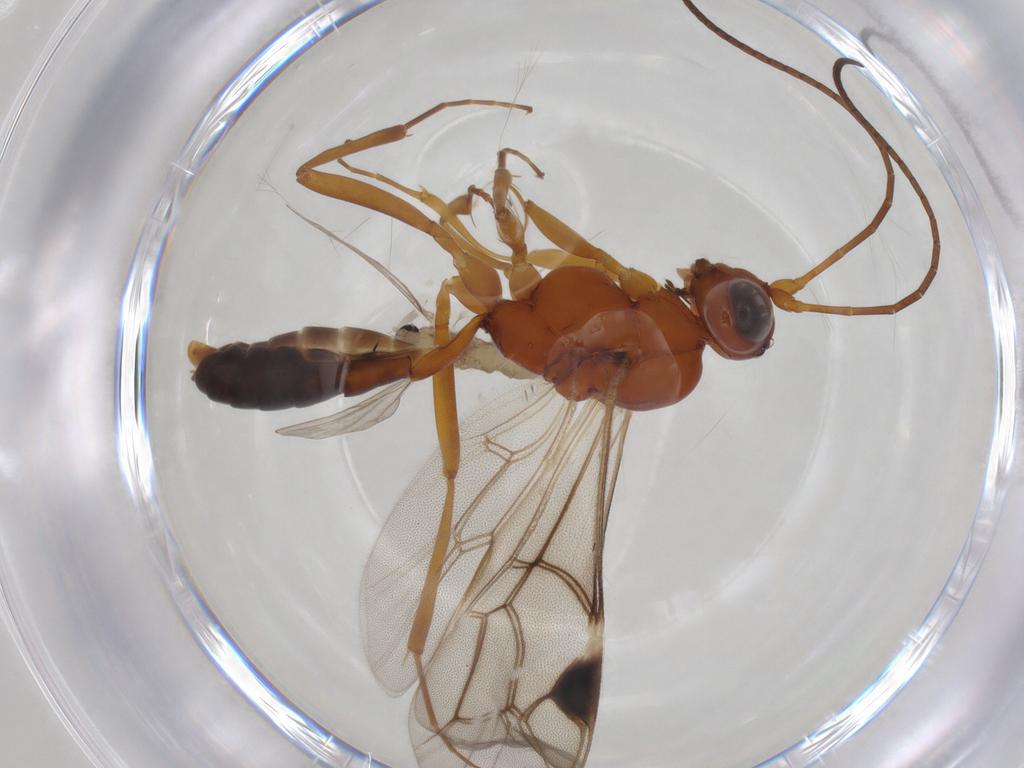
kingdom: Animalia
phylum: Arthropoda
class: Insecta
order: Hymenoptera
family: Ichneumonidae
